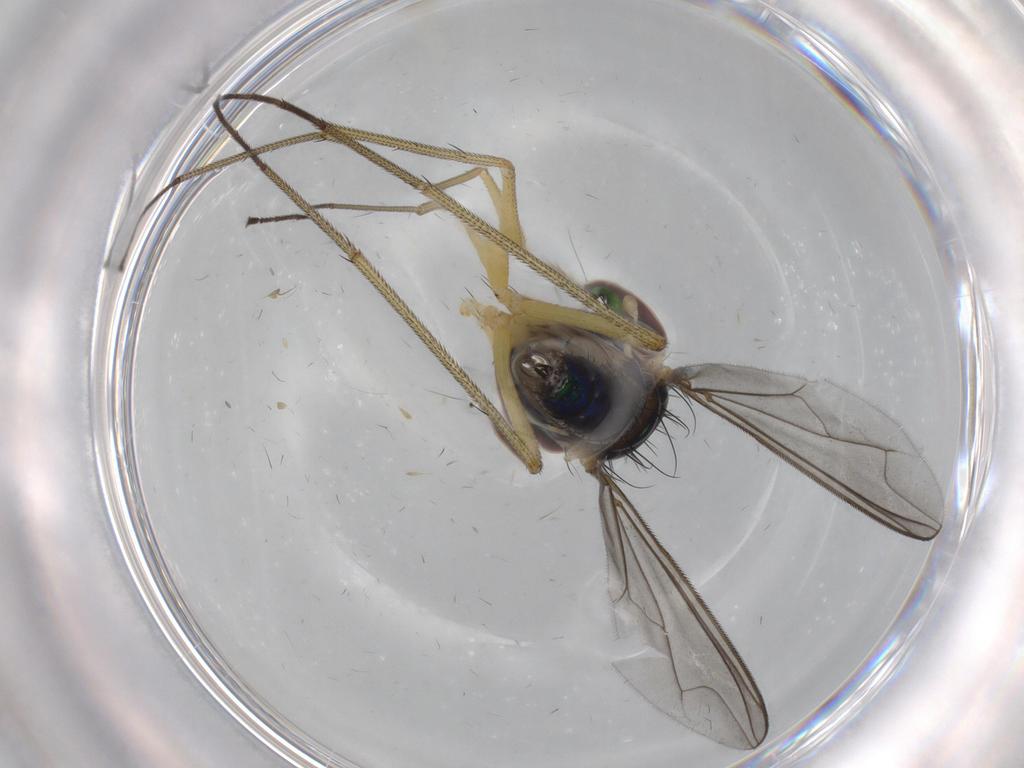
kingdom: Animalia
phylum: Arthropoda
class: Insecta
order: Diptera
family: Dolichopodidae
